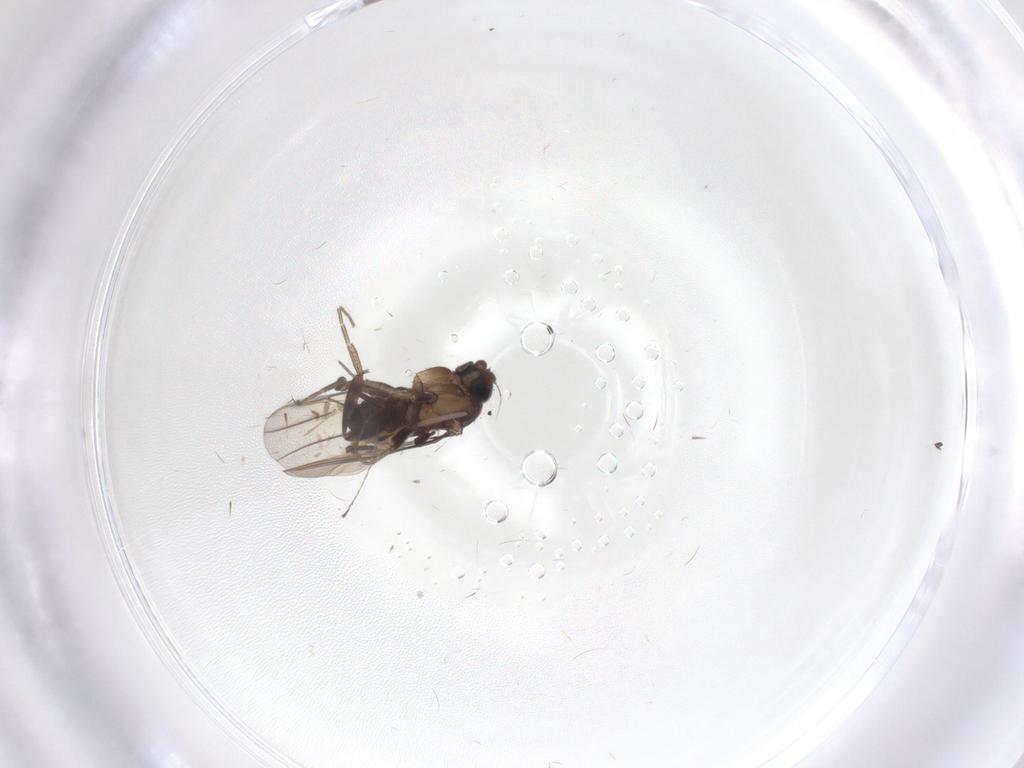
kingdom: Animalia
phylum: Arthropoda
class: Insecta
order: Diptera
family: Phoridae
